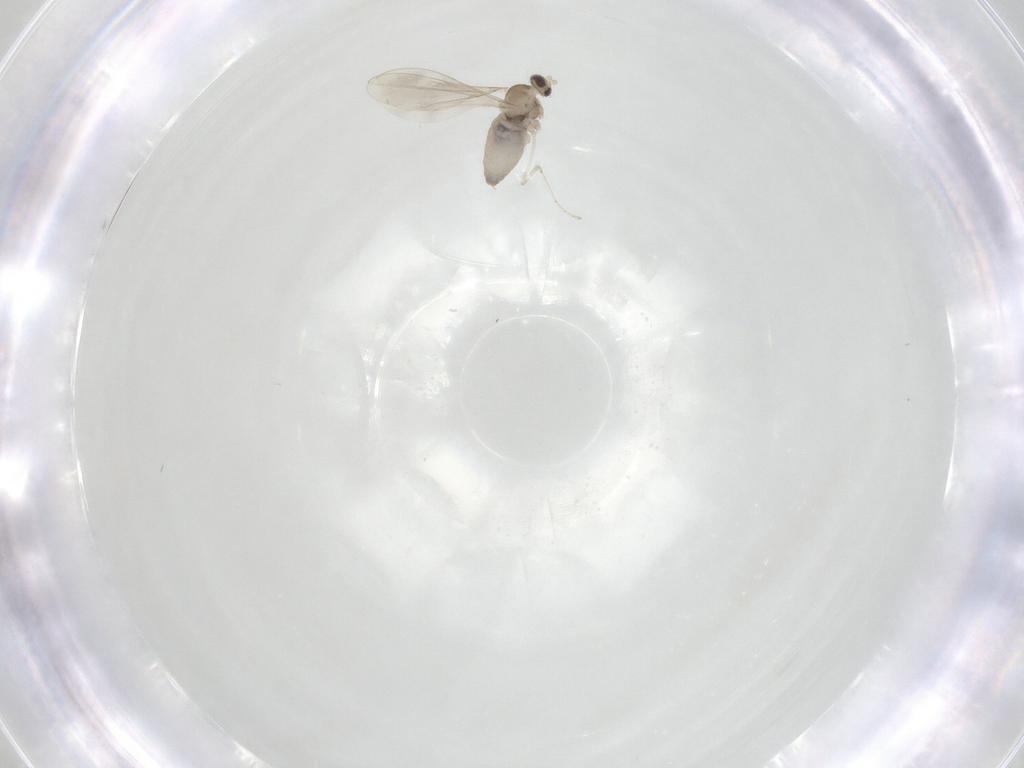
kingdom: Animalia
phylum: Arthropoda
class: Insecta
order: Diptera
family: Cecidomyiidae
